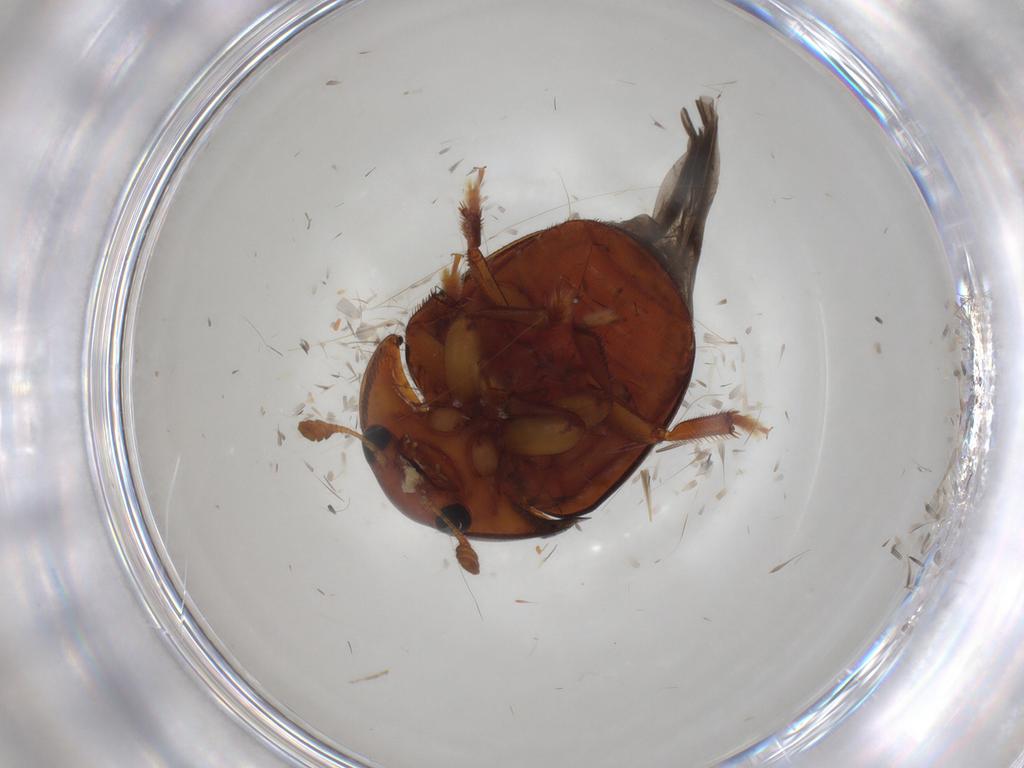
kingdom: Animalia
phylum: Arthropoda
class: Insecta
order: Coleoptera
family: Nitidulidae
